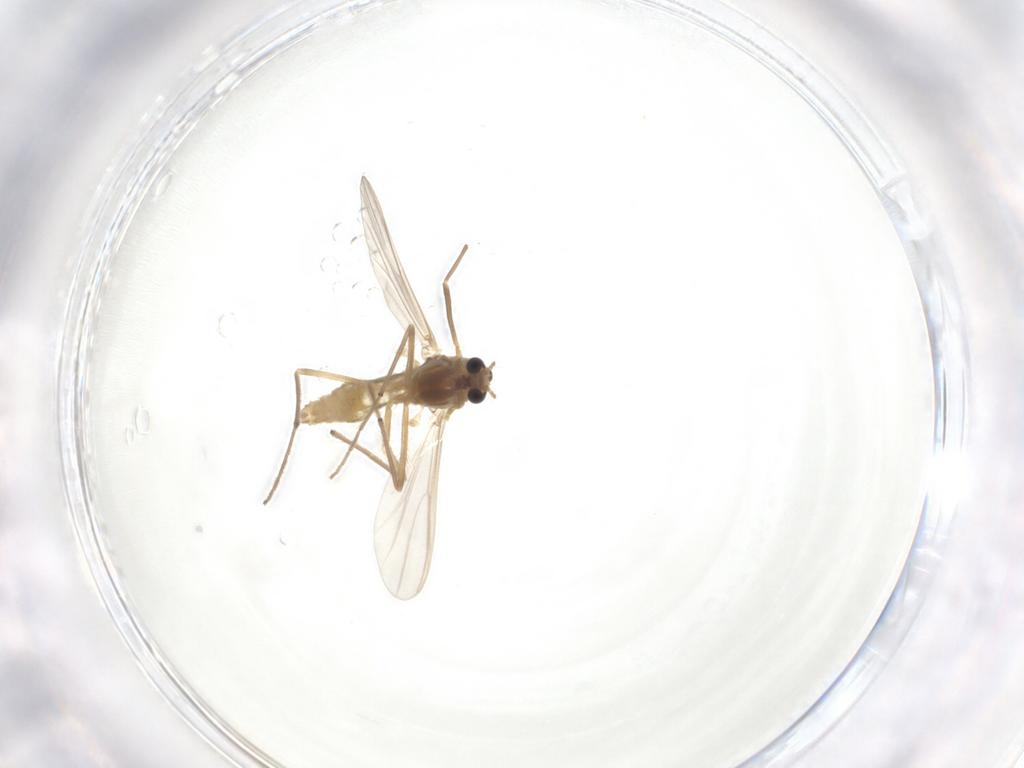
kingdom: Animalia
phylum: Arthropoda
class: Insecta
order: Diptera
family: Chironomidae
